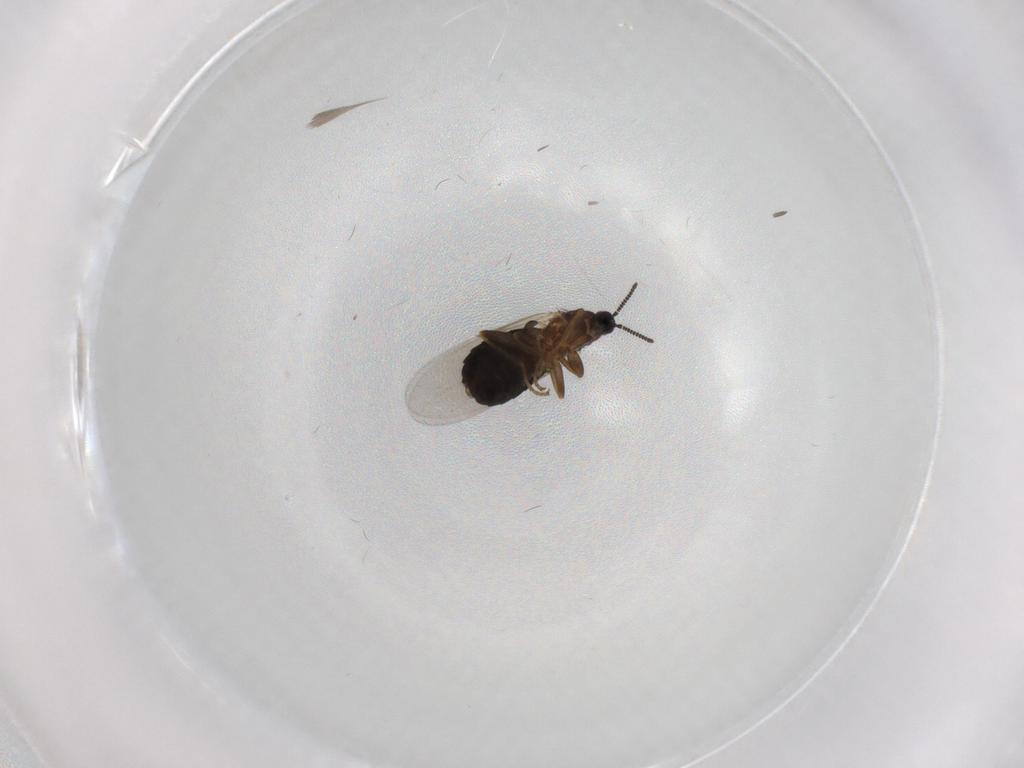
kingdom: Animalia
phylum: Arthropoda
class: Insecta
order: Diptera
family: Scatopsidae
